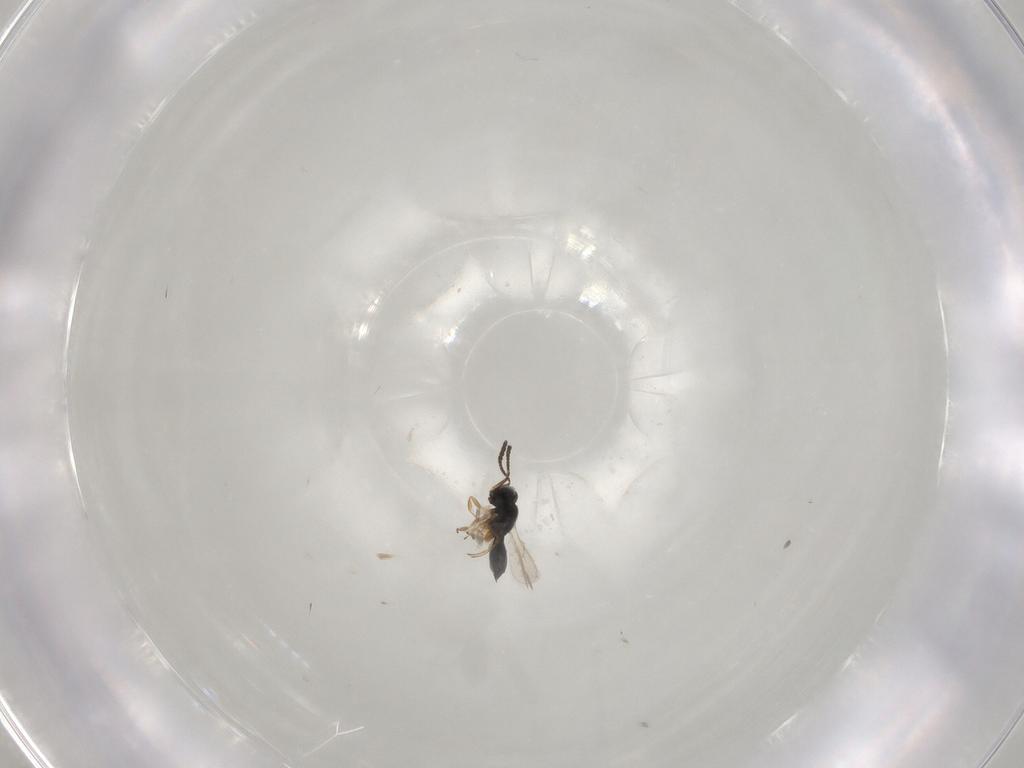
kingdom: Animalia
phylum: Arthropoda
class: Insecta
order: Hymenoptera
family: Scelionidae
